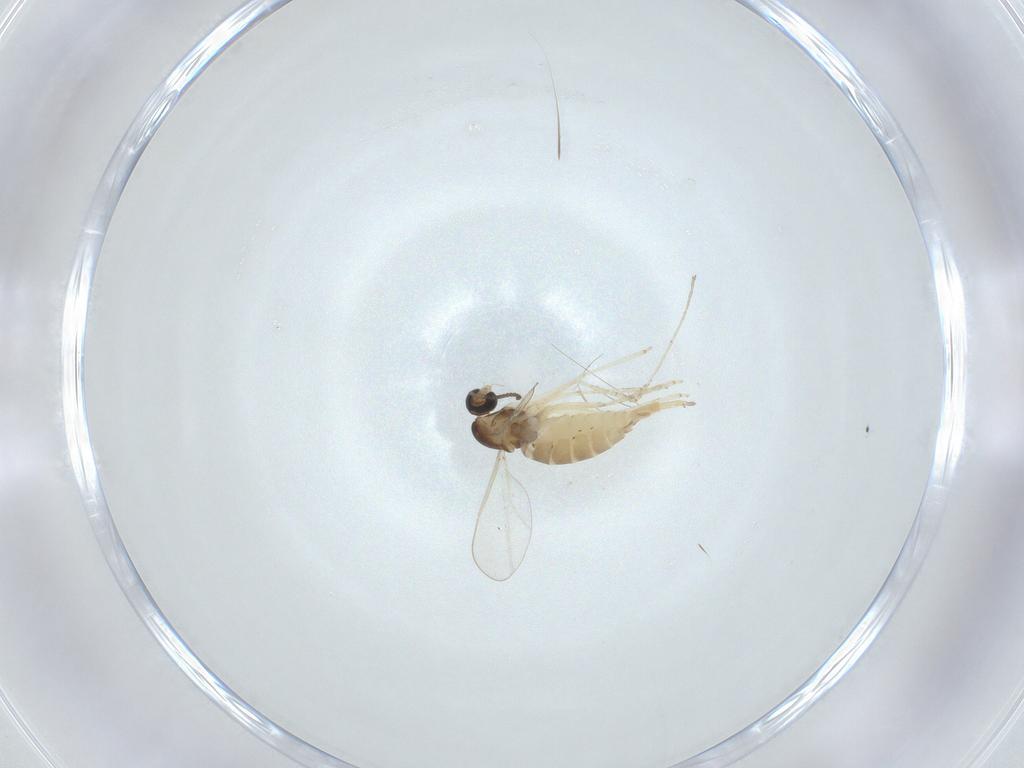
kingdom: Animalia
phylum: Arthropoda
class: Insecta
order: Diptera
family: Cecidomyiidae
